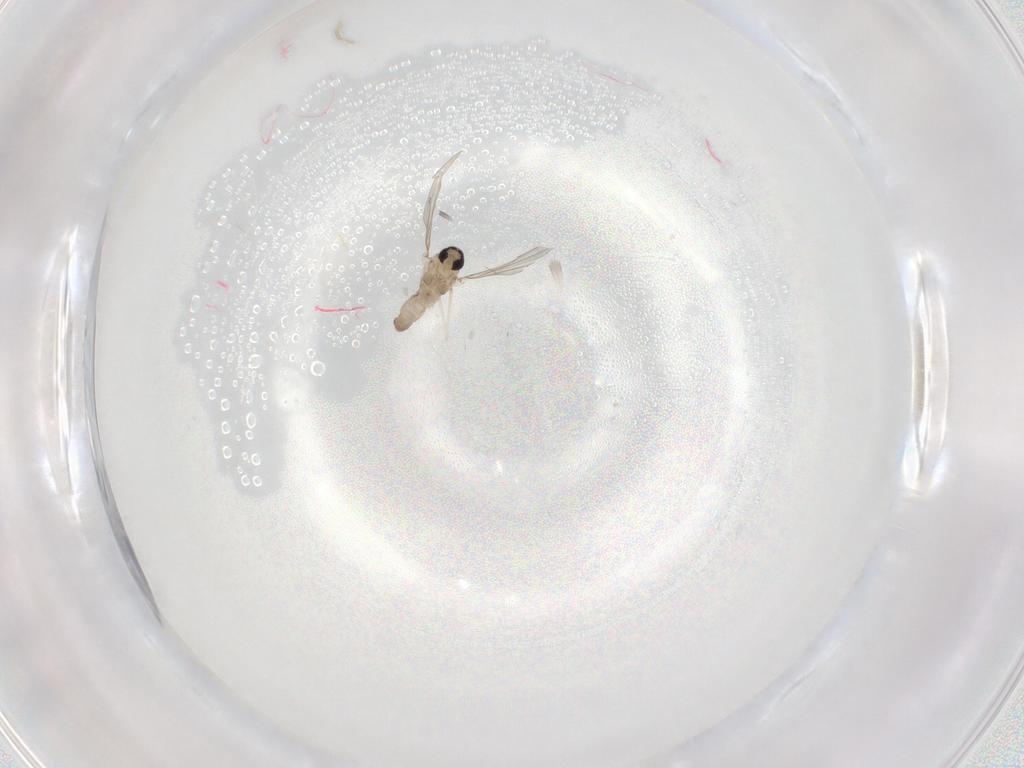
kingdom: Animalia
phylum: Arthropoda
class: Insecta
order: Diptera
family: Cecidomyiidae
